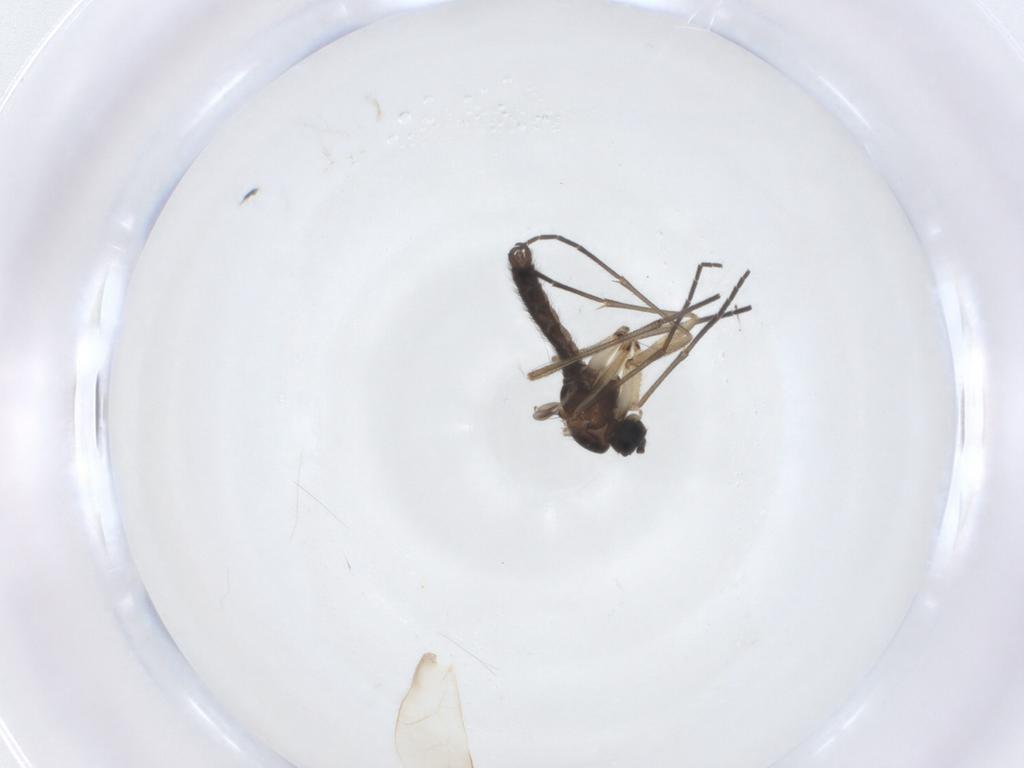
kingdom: Animalia
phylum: Arthropoda
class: Insecta
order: Diptera
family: Sciaridae
